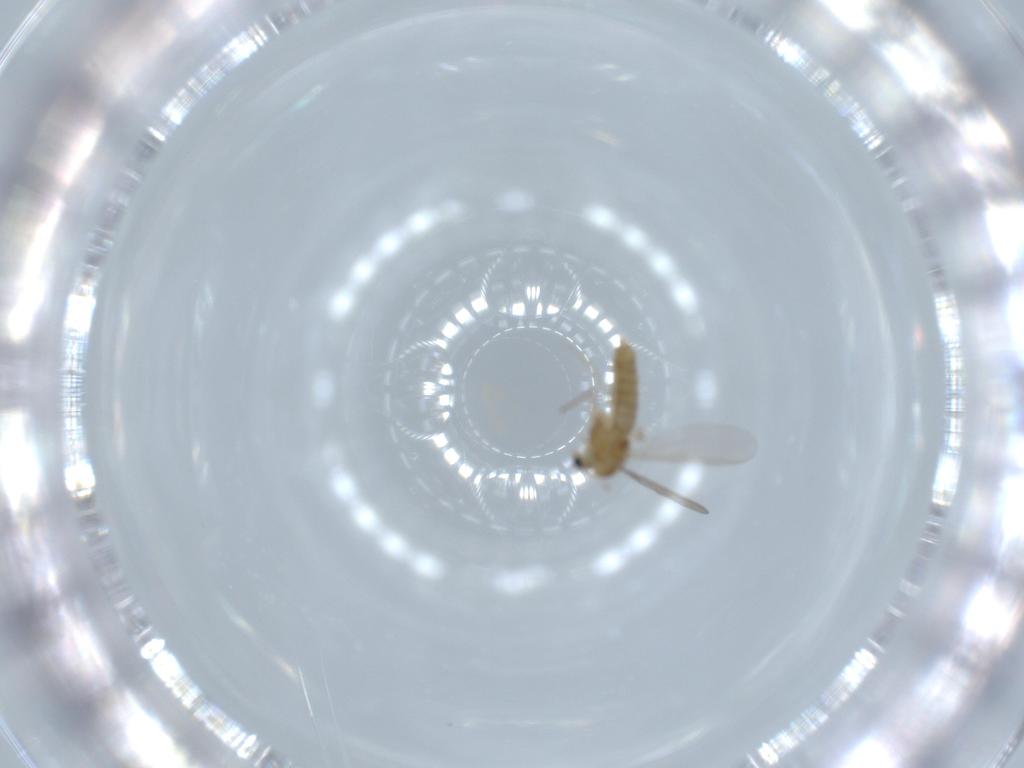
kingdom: Animalia
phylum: Arthropoda
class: Insecta
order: Diptera
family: Chironomidae
